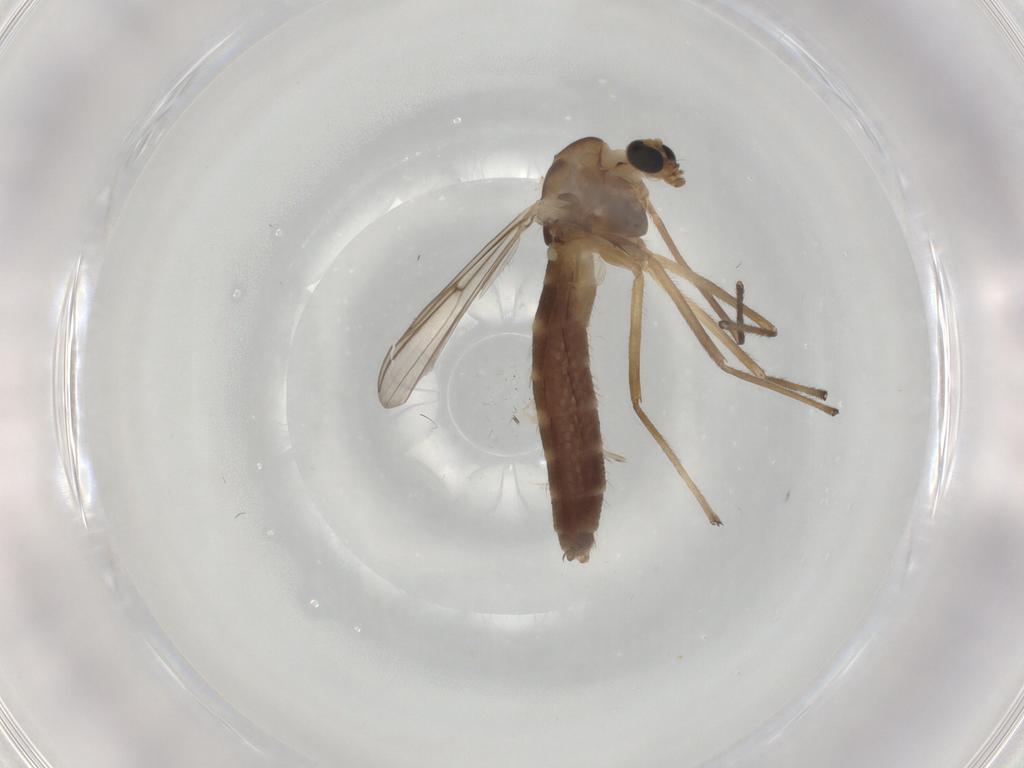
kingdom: Animalia
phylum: Arthropoda
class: Insecta
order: Diptera
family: Chironomidae
